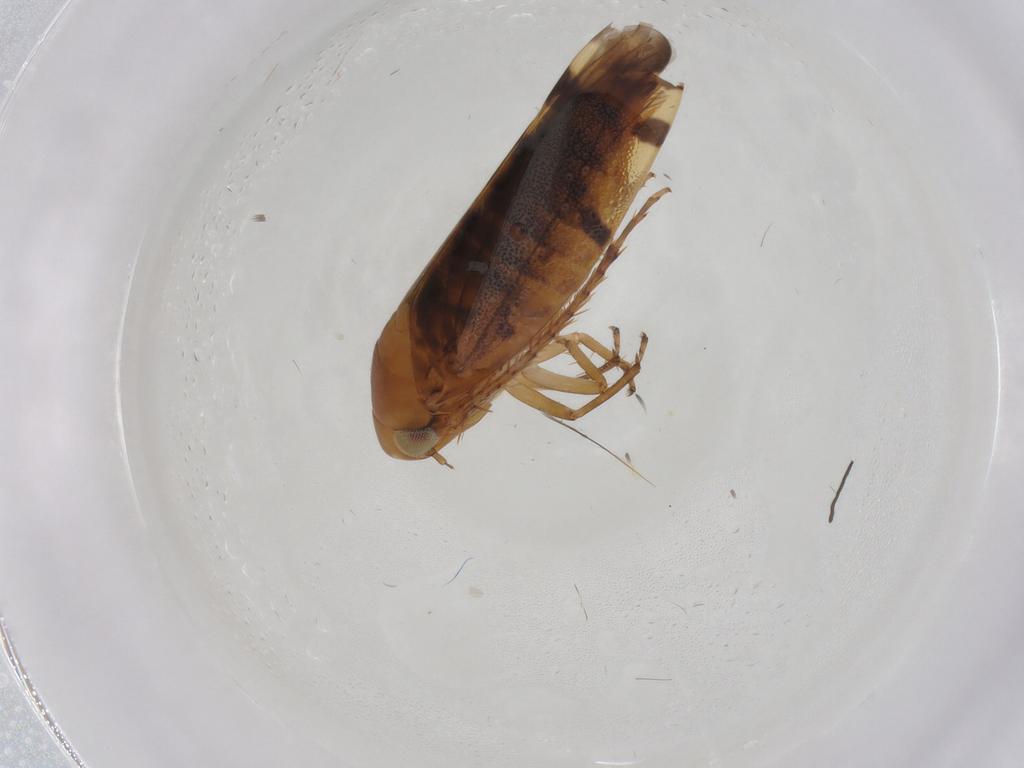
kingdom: Animalia
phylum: Arthropoda
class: Insecta
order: Hemiptera
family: Cicadellidae
